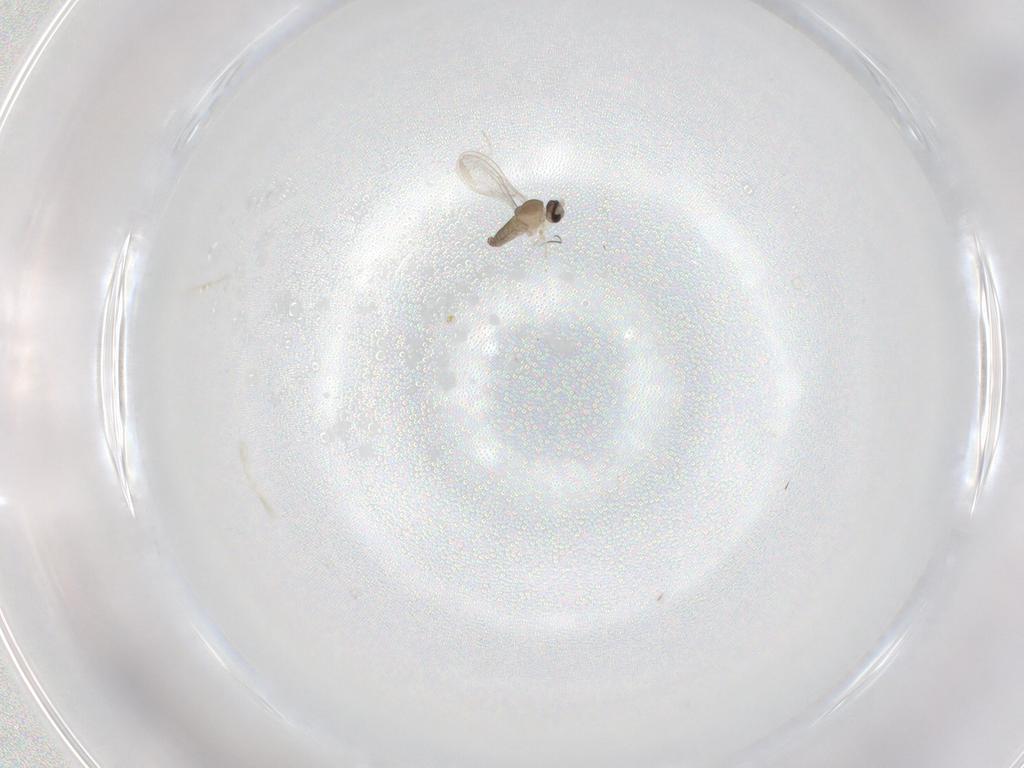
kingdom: Animalia
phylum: Arthropoda
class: Insecta
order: Diptera
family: Cecidomyiidae
